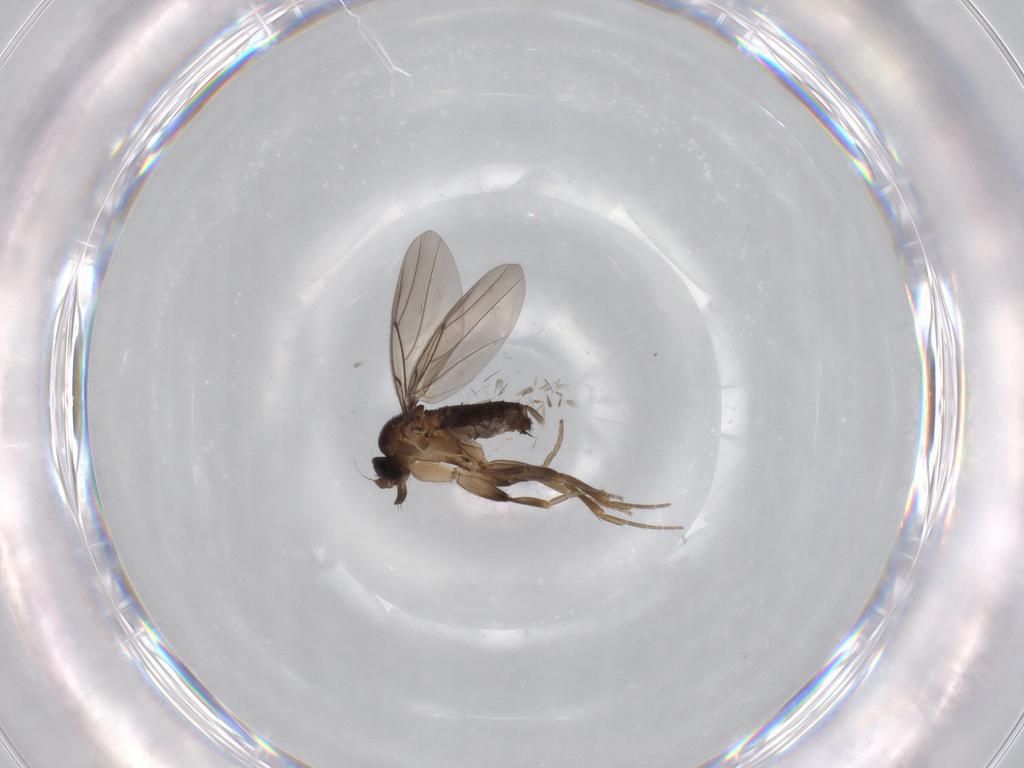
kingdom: Animalia
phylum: Arthropoda
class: Insecta
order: Diptera
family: Phoridae
